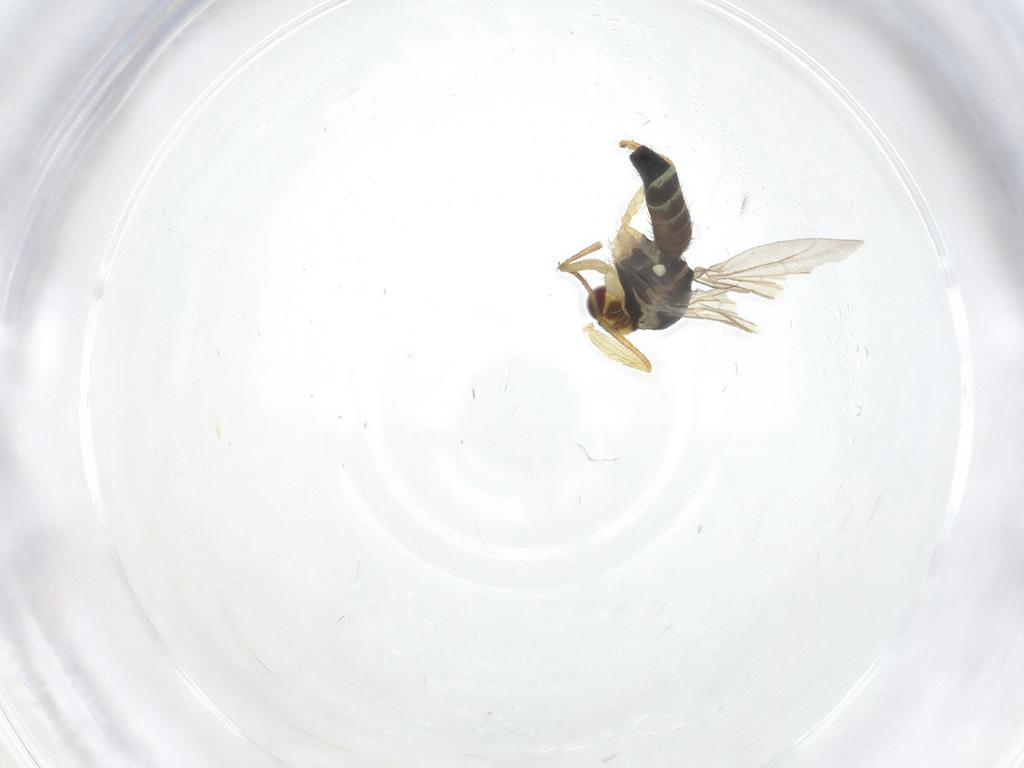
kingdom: Animalia
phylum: Arthropoda
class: Insecta
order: Diptera
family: Agromyzidae
